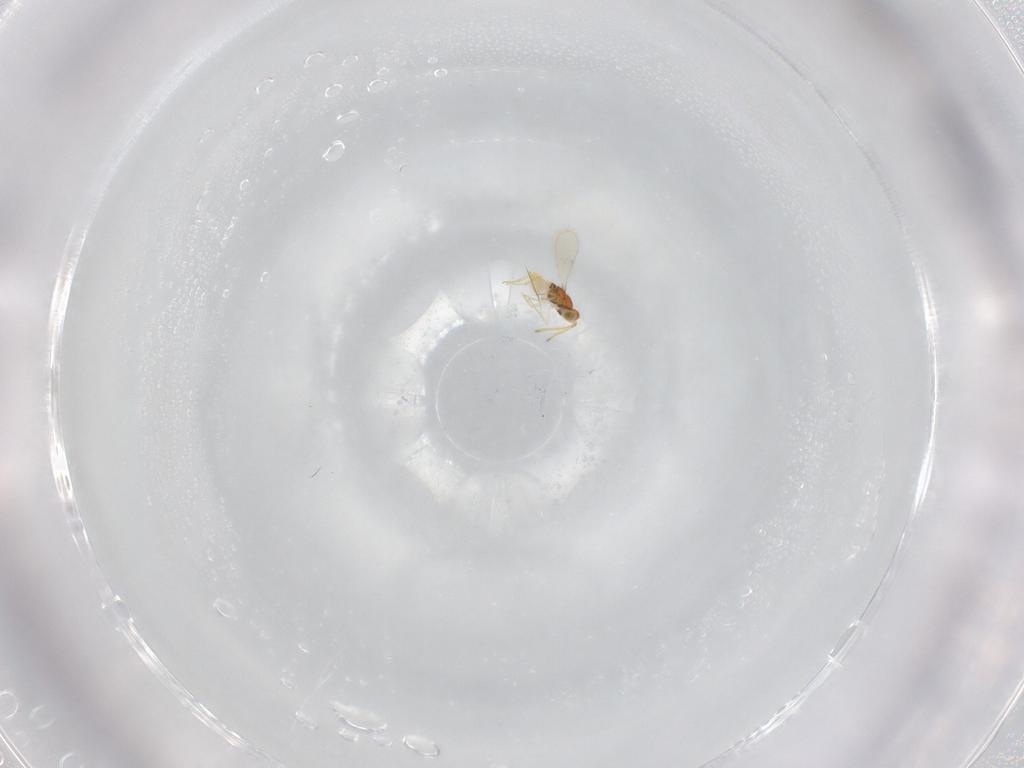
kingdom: Animalia
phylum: Arthropoda
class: Insecta
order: Hymenoptera
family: Aphelinidae
